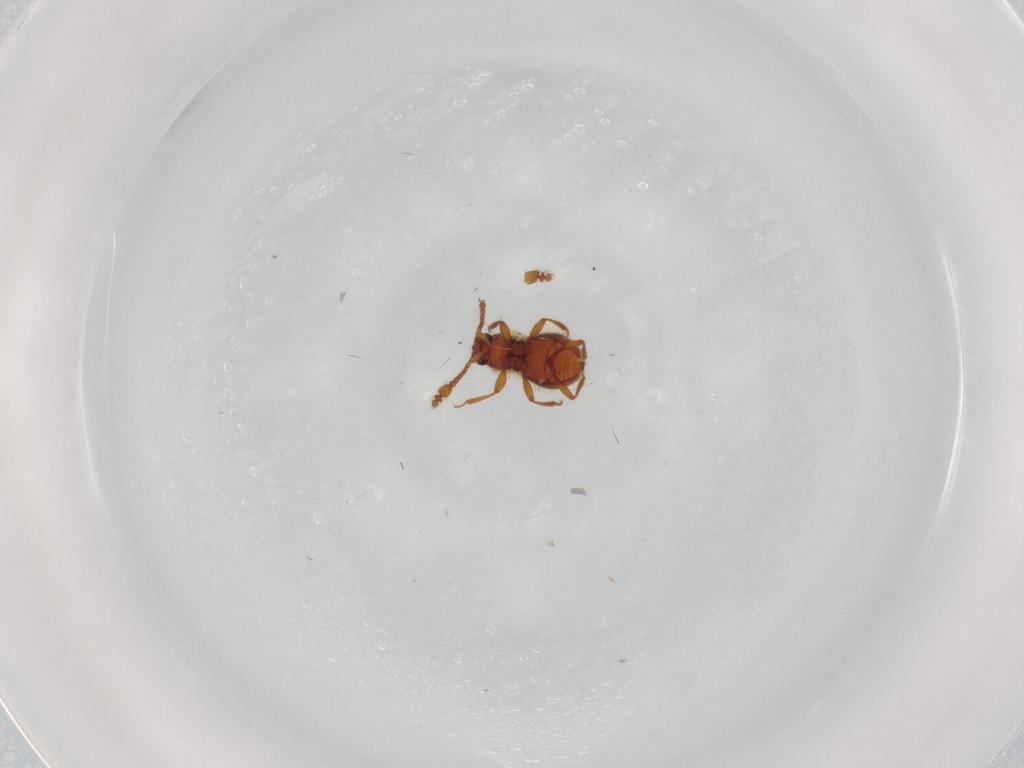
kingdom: Animalia
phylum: Arthropoda
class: Insecta
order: Coleoptera
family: Staphylinidae
